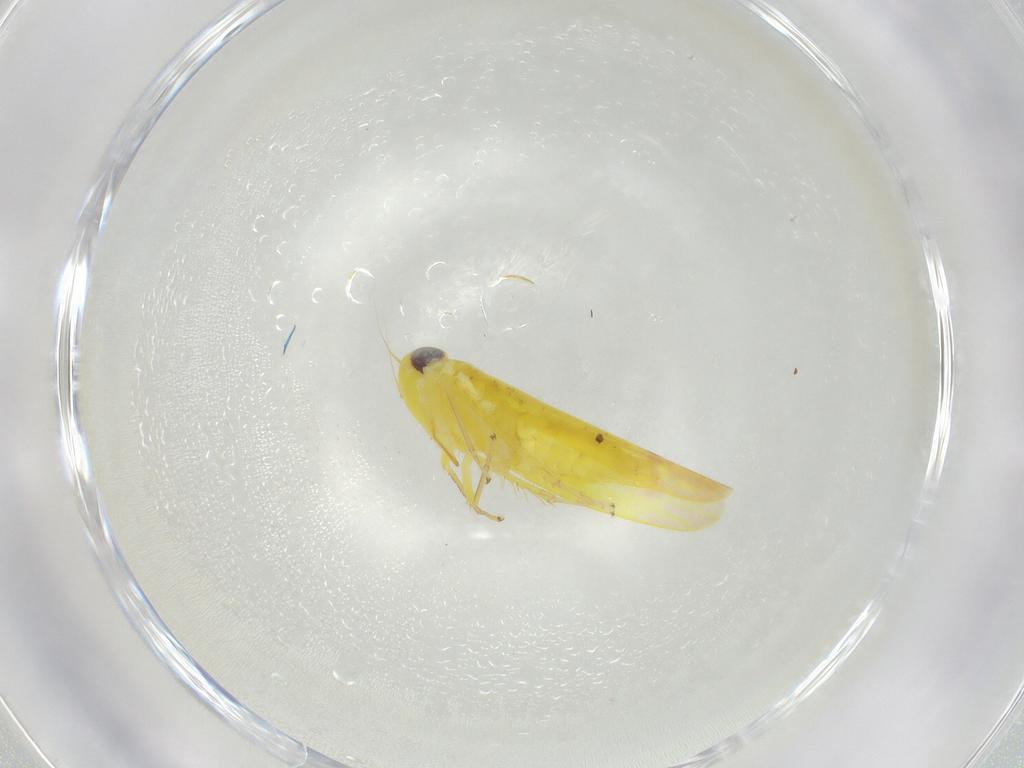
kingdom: Animalia
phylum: Arthropoda
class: Insecta
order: Hemiptera
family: Cicadellidae
